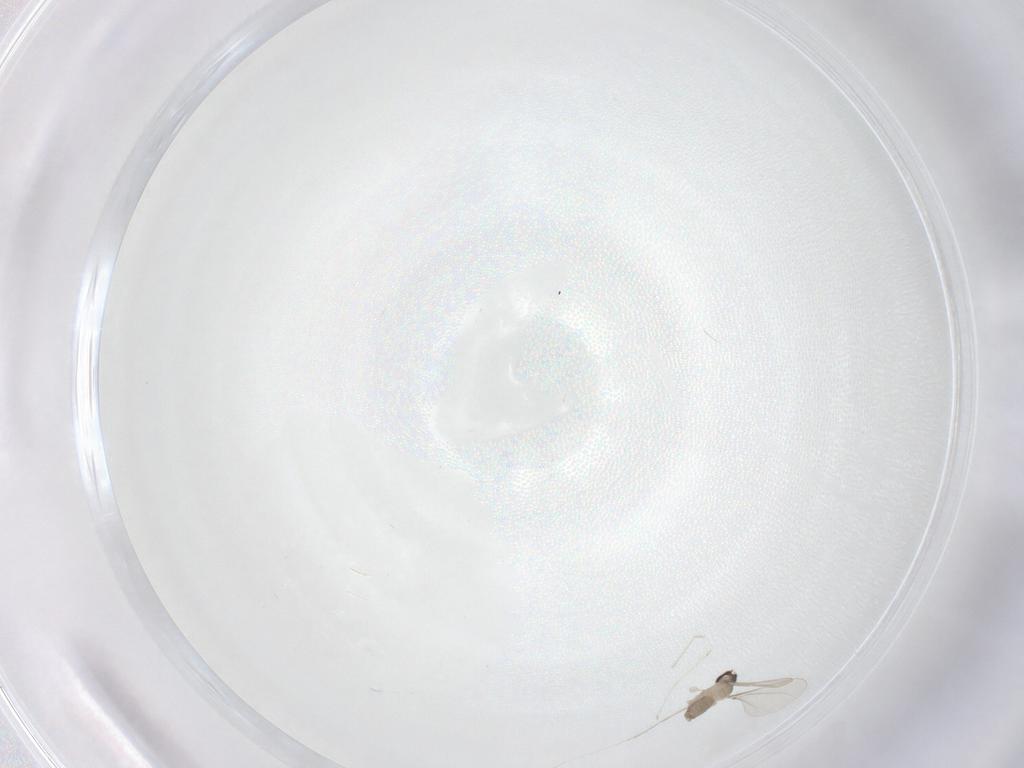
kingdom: Animalia
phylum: Arthropoda
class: Insecta
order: Diptera
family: Cecidomyiidae
